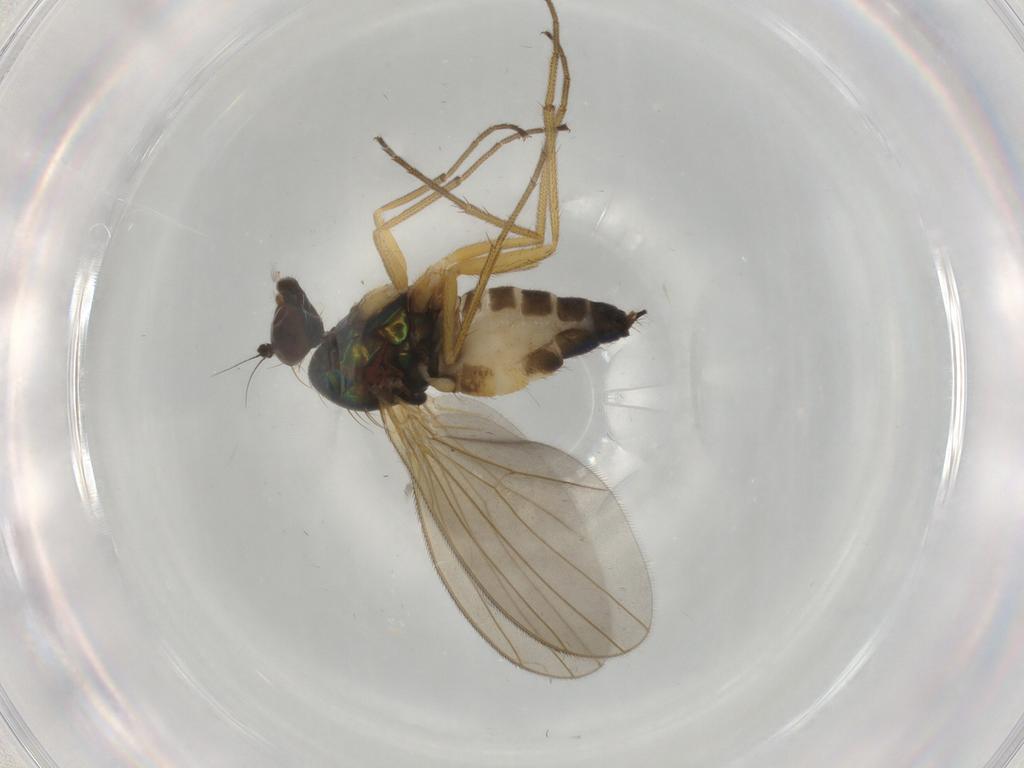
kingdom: Animalia
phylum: Arthropoda
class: Insecta
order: Diptera
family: Dolichopodidae
